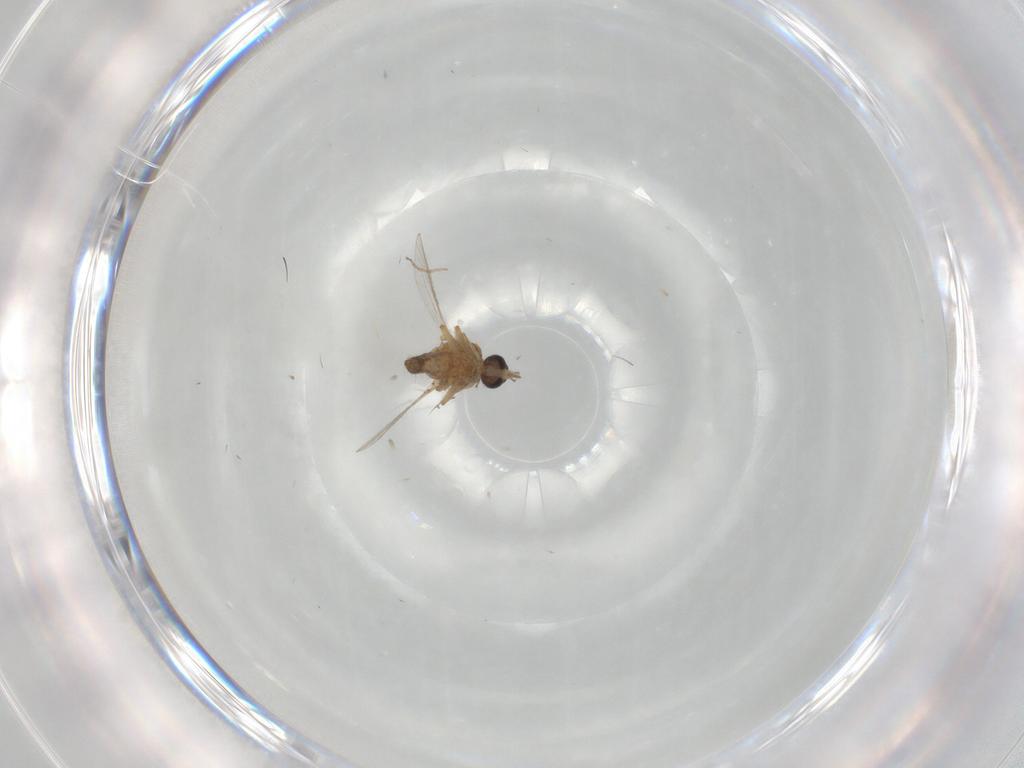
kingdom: Animalia
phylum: Arthropoda
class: Insecta
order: Diptera
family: Ceratopogonidae
